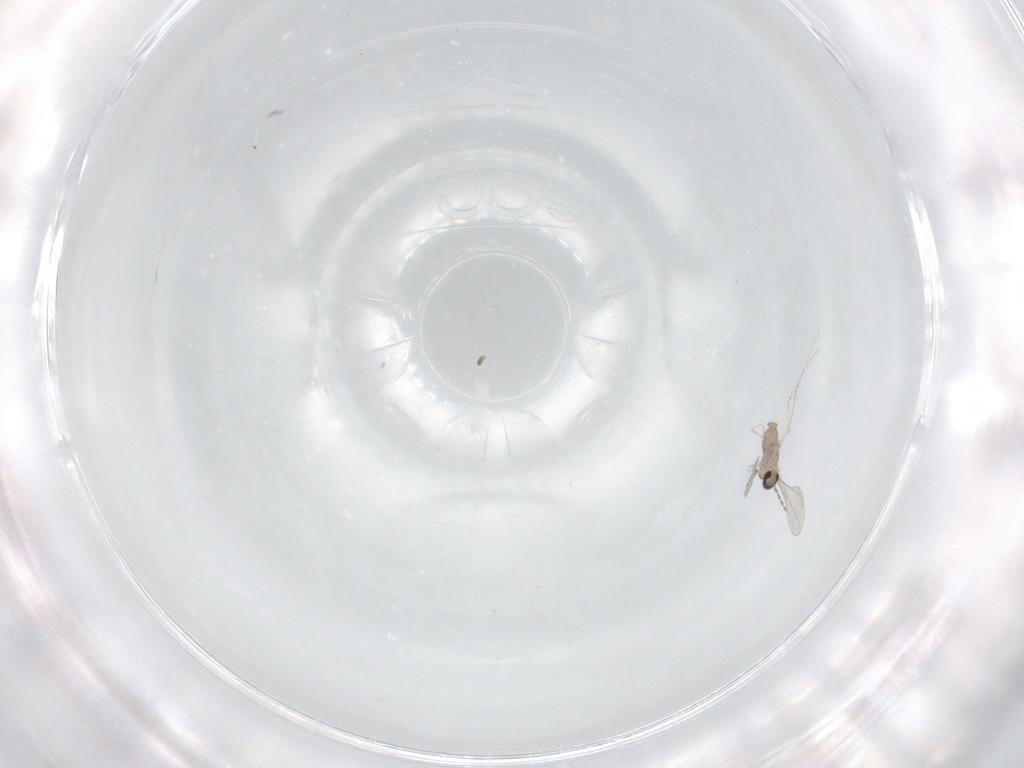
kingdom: Animalia
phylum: Arthropoda
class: Insecta
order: Diptera
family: Cecidomyiidae
